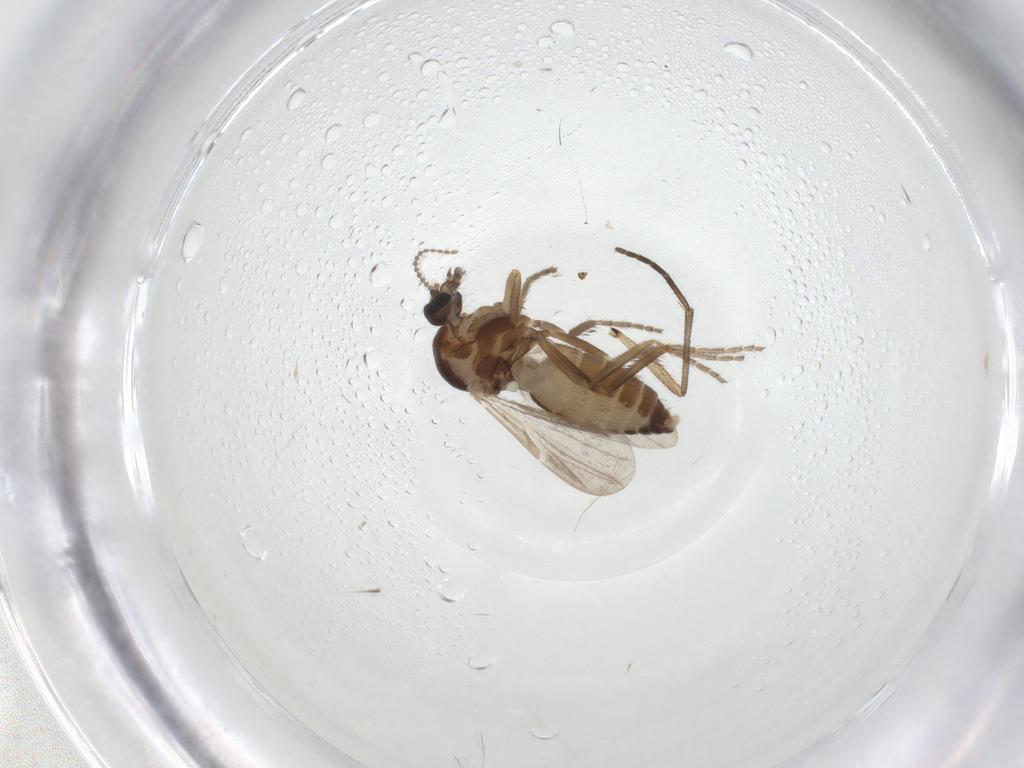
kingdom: Animalia
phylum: Arthropoda
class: Insecta
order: Diptera
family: Ceratopogonidae
